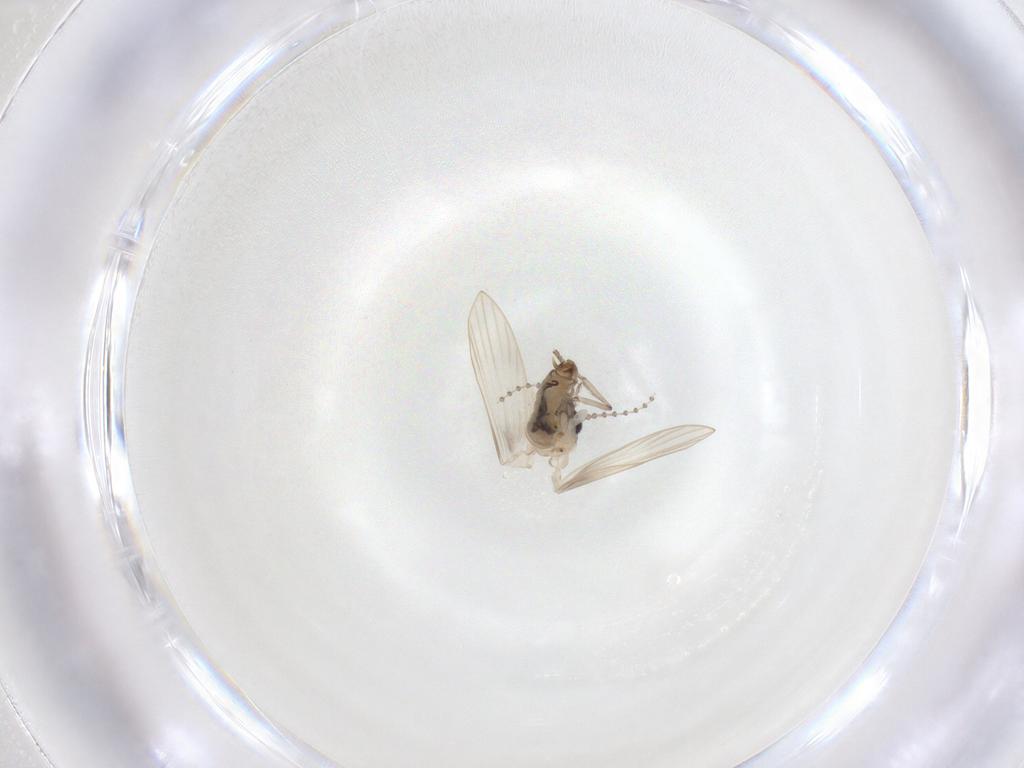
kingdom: Animalia
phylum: Arthropoda
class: Insecta
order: Diptera
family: Psychodidae
